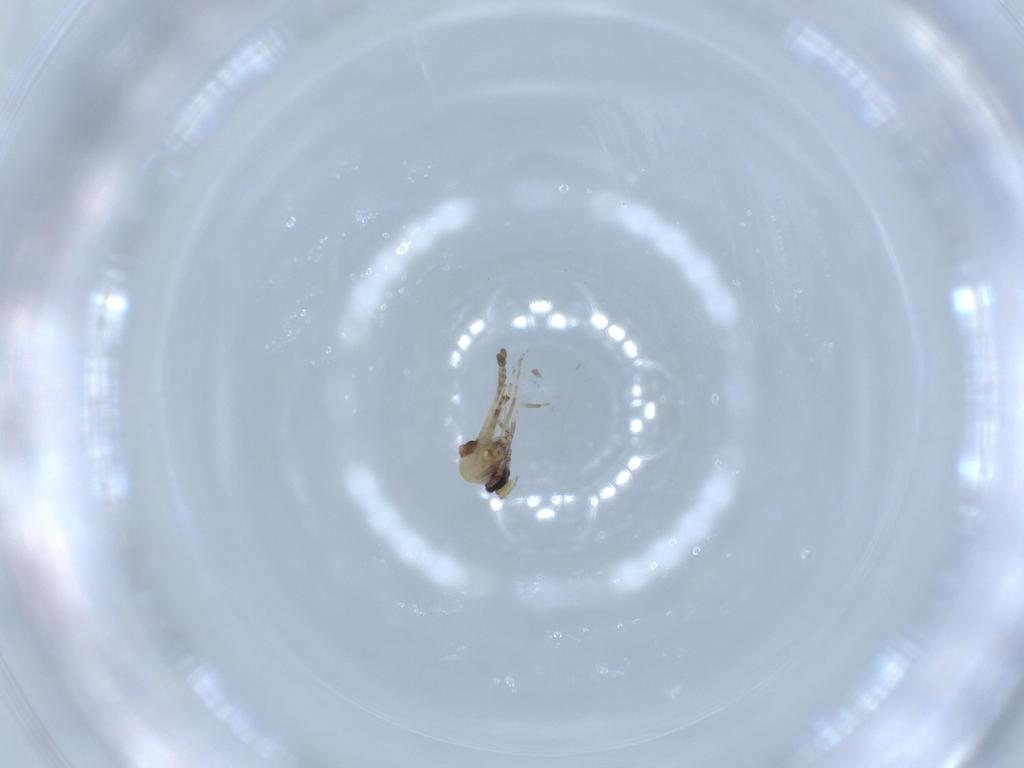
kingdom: Animalia
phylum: Arthropoda
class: Insecta
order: Diptera
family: Ceratopogonidae
